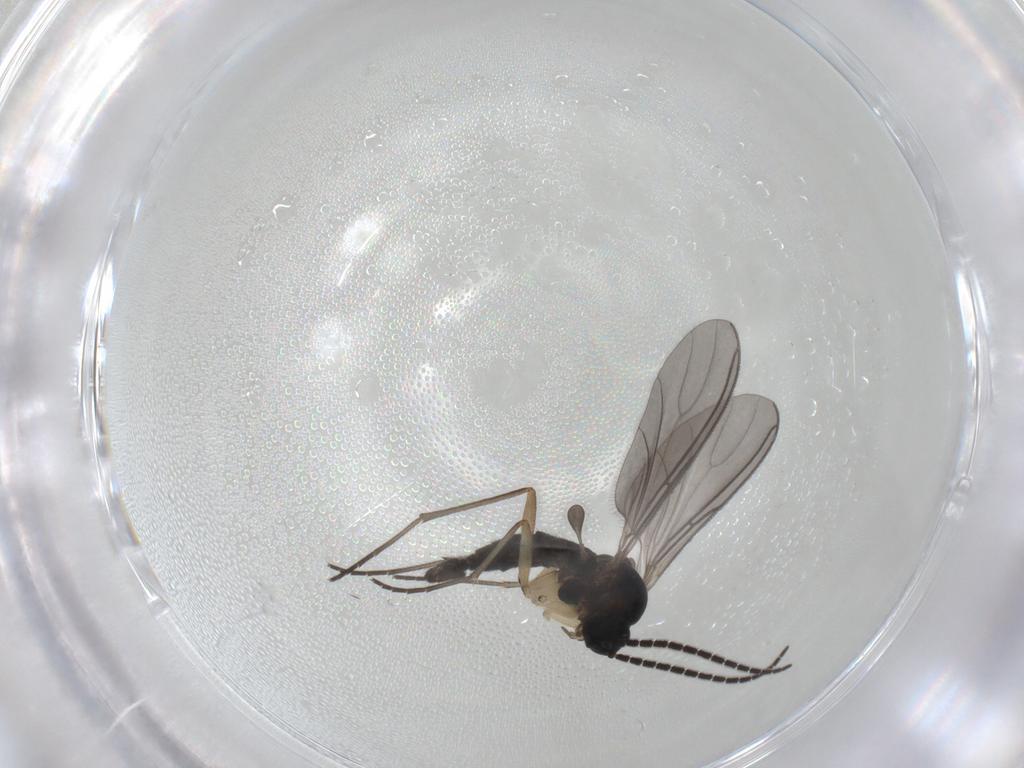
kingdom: Animalia
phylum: Arthropoda
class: Insecta
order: Diptera
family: Sciaridae
